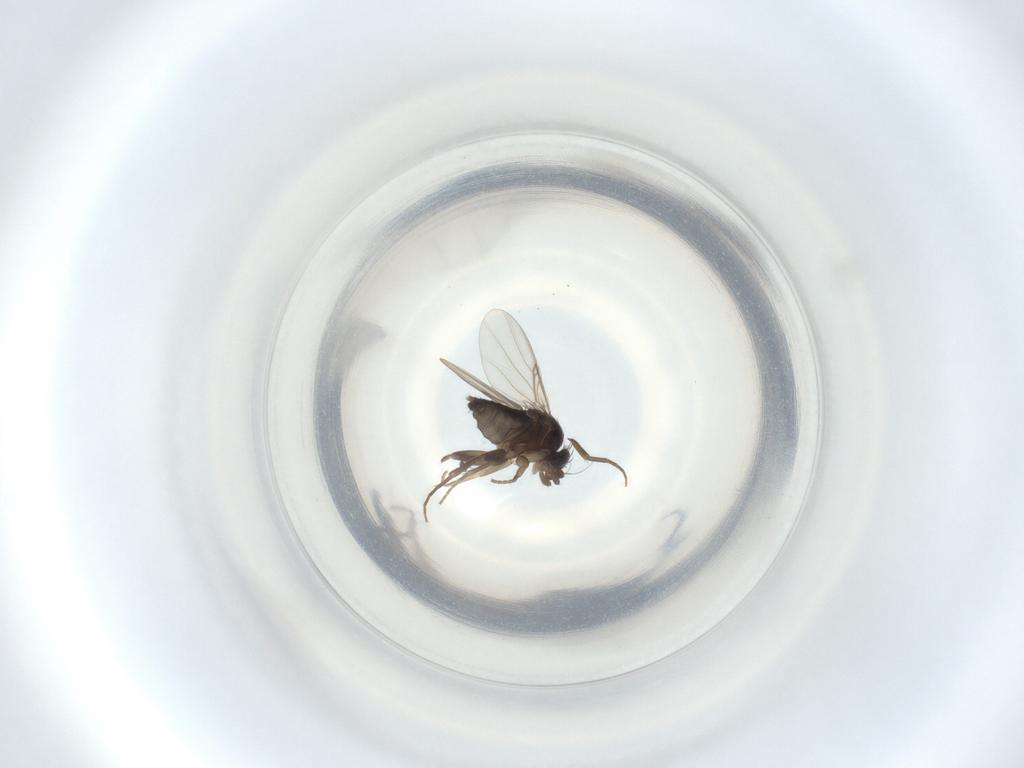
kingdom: Animalia
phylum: Arthropoda
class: Insecta
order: Diptera
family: Phoridae
